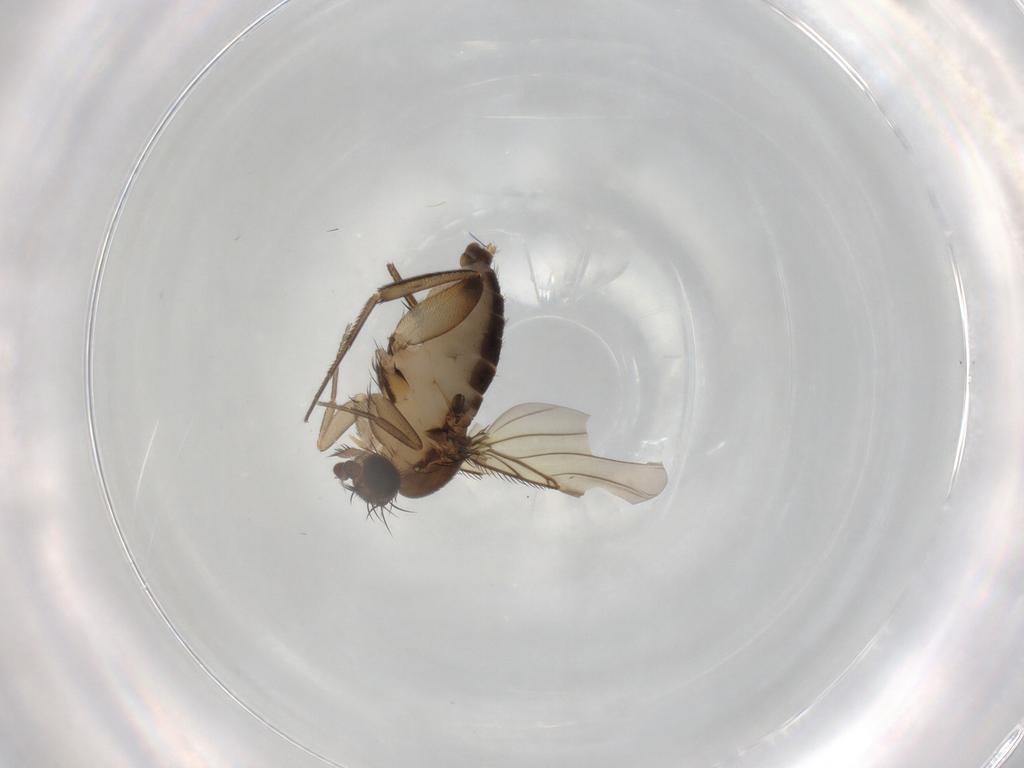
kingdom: Animalia
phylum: Arthropoda
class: Insecta
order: Diptera
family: Phoridae
